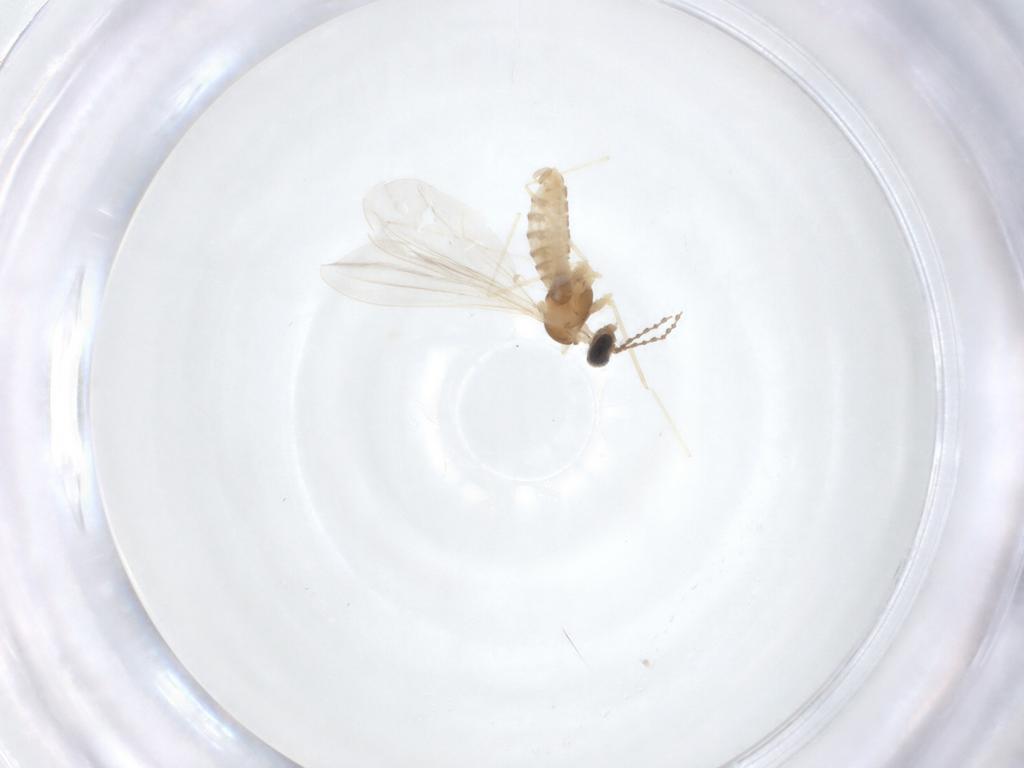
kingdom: Animalia
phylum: Arthropoda
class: Insecta
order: Diptera
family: Cecidomyiidae
